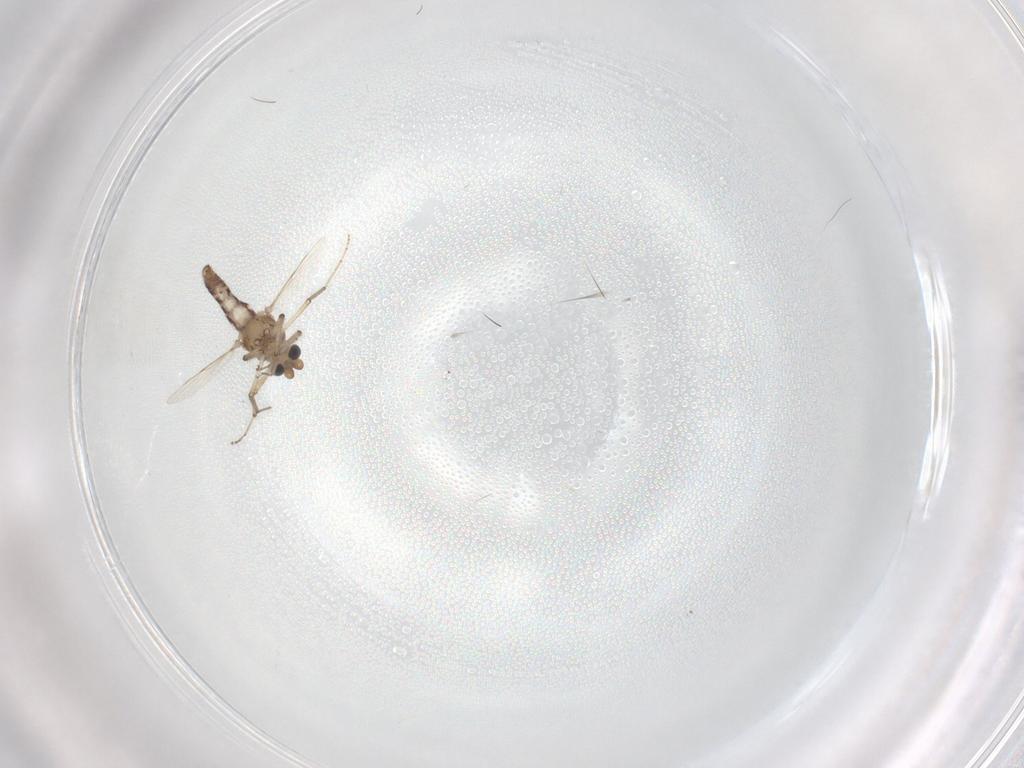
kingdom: Animalia
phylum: Arthropoda
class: Insecta
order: Diptera
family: Ceratopogonidae
